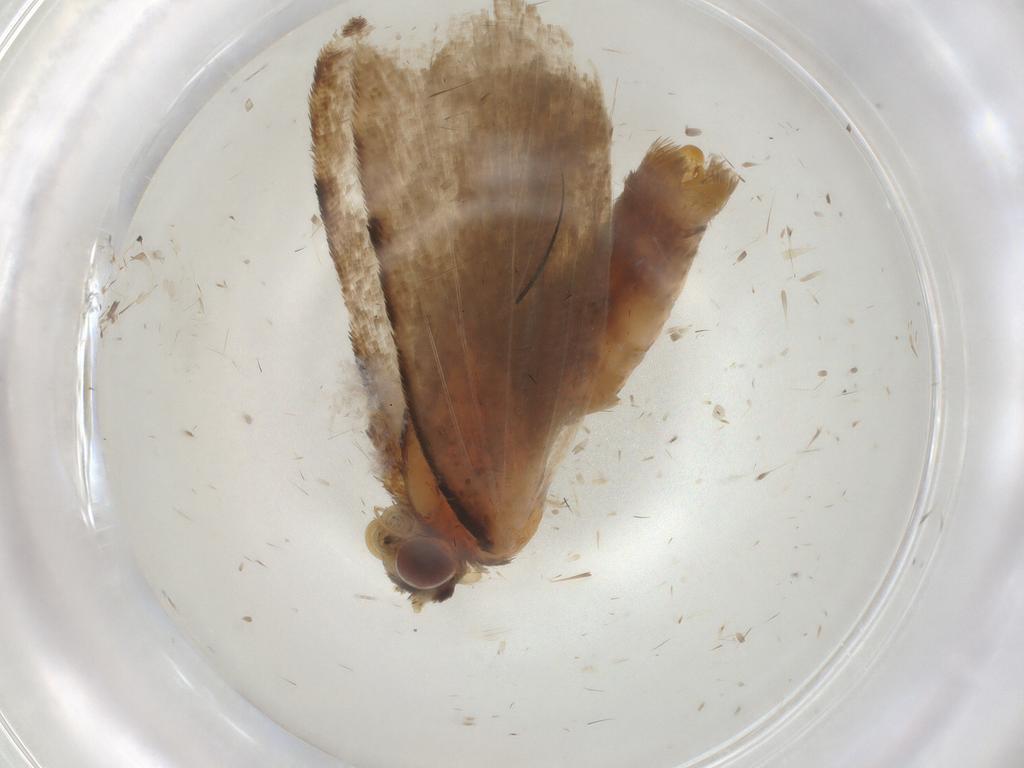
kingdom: Animalia
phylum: Arthropoda
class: Insecta
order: Lepidoptera
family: Erebidae
